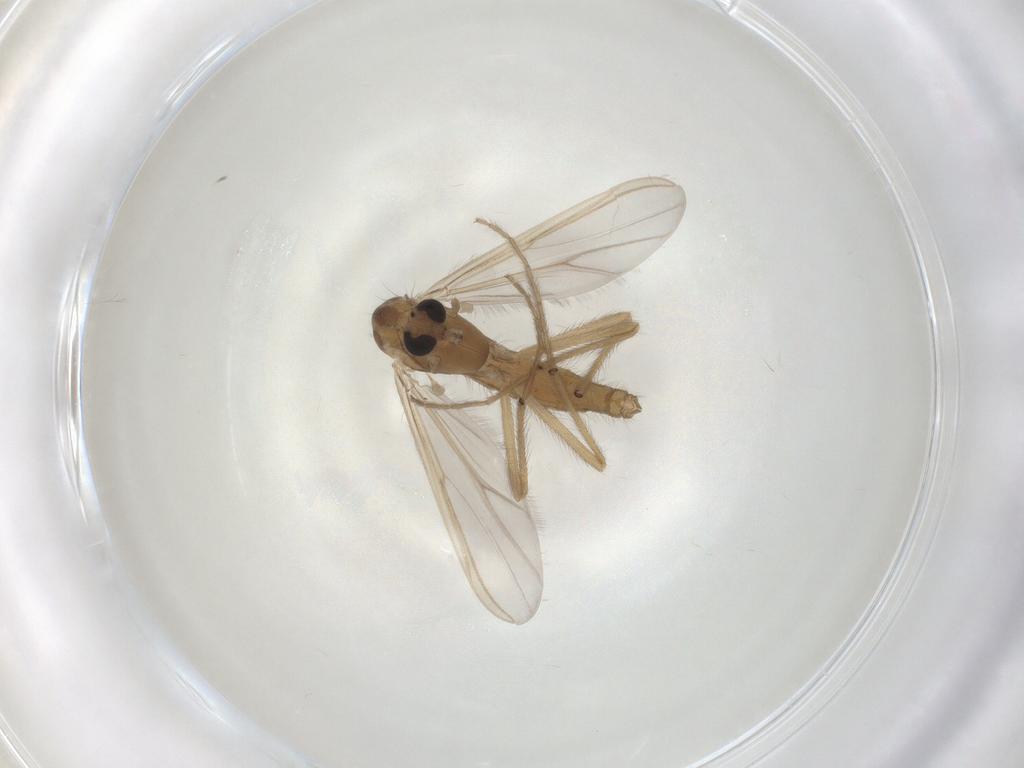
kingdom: Animalia
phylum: Arthropoda
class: Insecta
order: Diptera
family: Chironomidae
